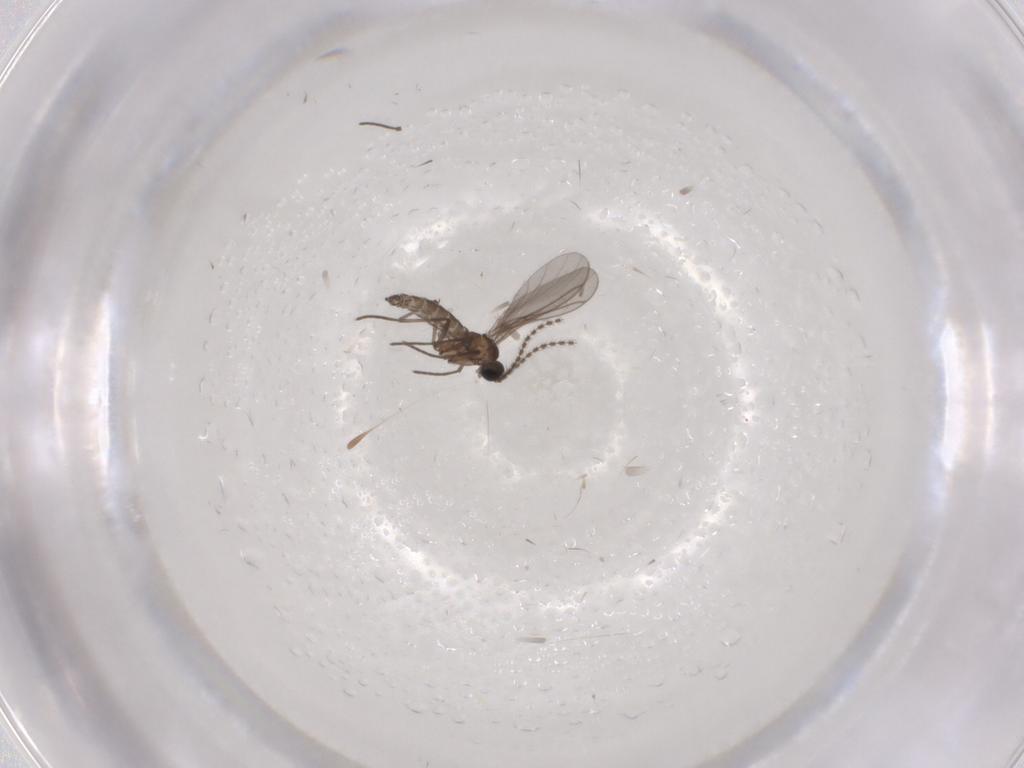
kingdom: Animalia
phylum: Arthropoda
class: Insecta
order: Diptera
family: Cecidomyiidae
